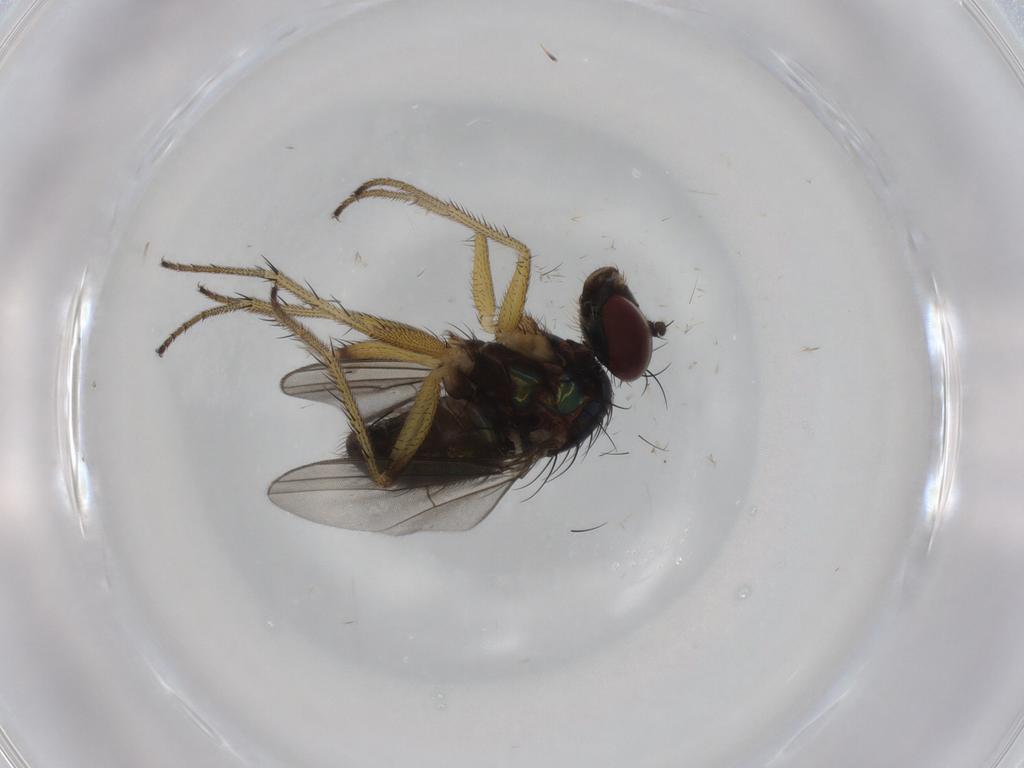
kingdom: Animalia
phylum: Arthropoda
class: Insecta
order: Diptera
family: Dolichopodidae
